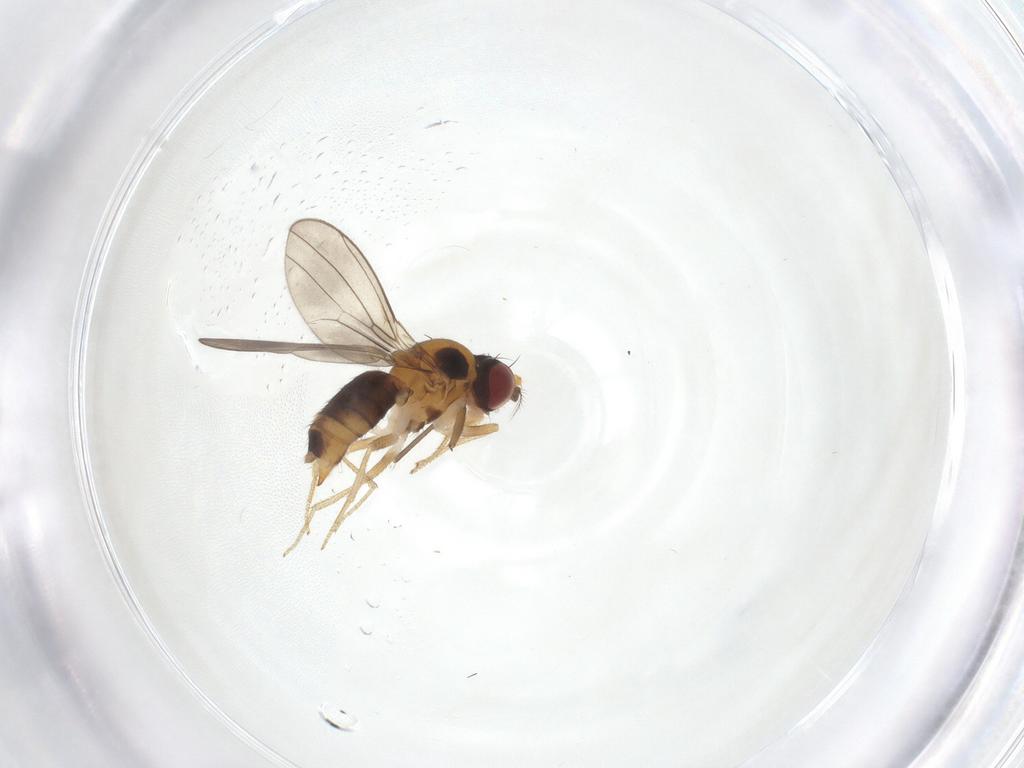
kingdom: Animalia
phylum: Arthropoda
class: Insecta
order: Diptera
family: Drosophilidae
